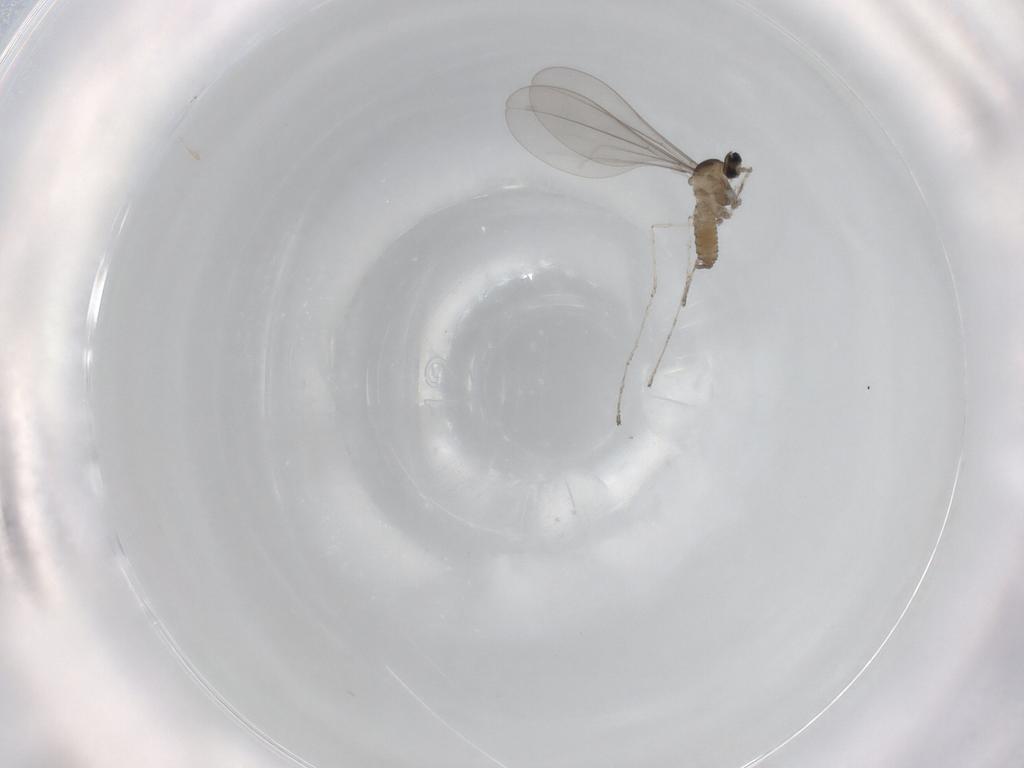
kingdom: Animalia
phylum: Arthropoda
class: Insecta
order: Diptera
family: Cecidomyiidae
